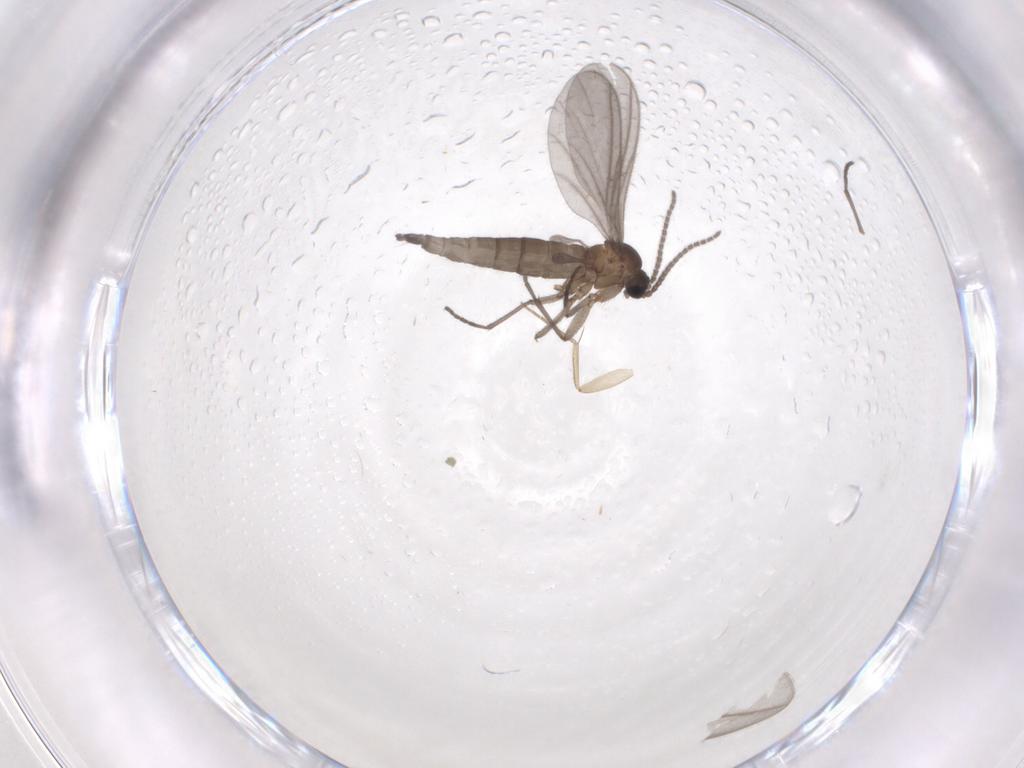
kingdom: Animalia
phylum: Arthropoda
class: Insecta
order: Diptera
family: Sciaridae
